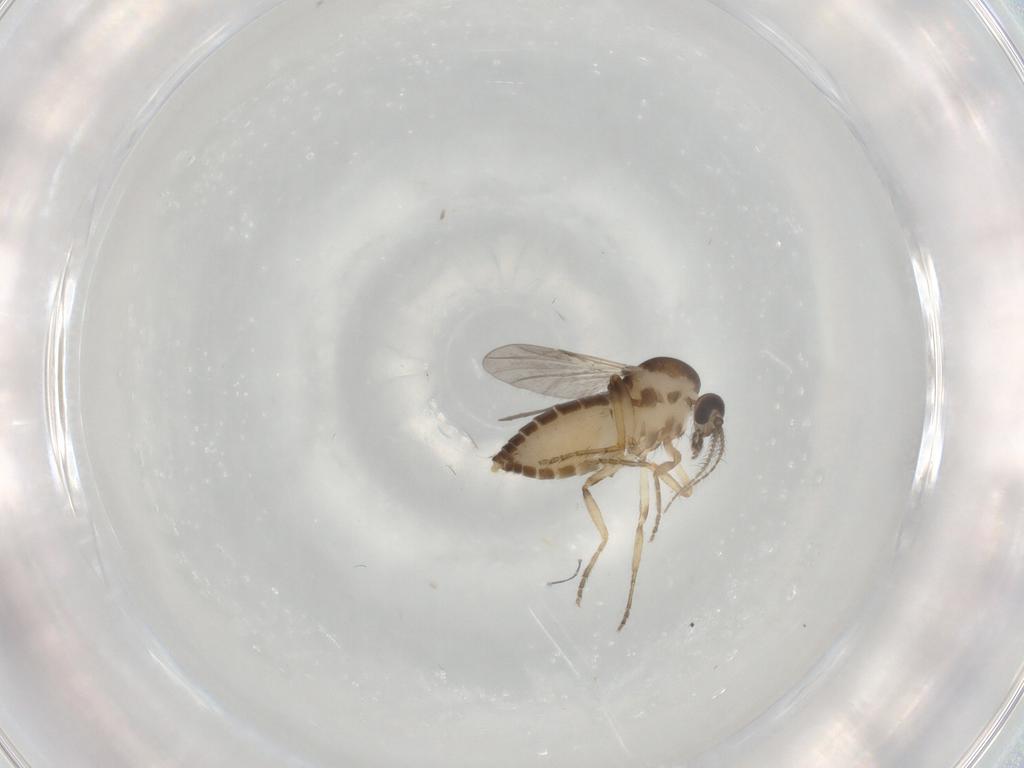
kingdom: Animalia
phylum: Arthropoda
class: Insecta
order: Diptera
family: Ceratopogonidae
